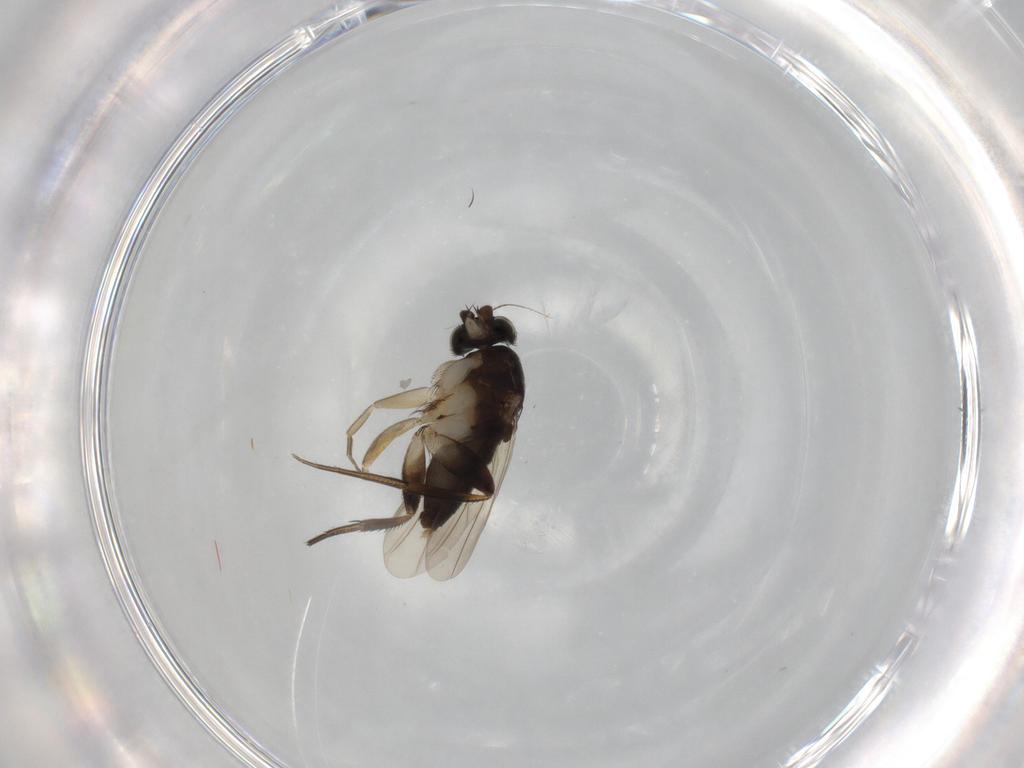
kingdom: Animalia
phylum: Arthropoda
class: Insecta
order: Diptera
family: Phoridae
